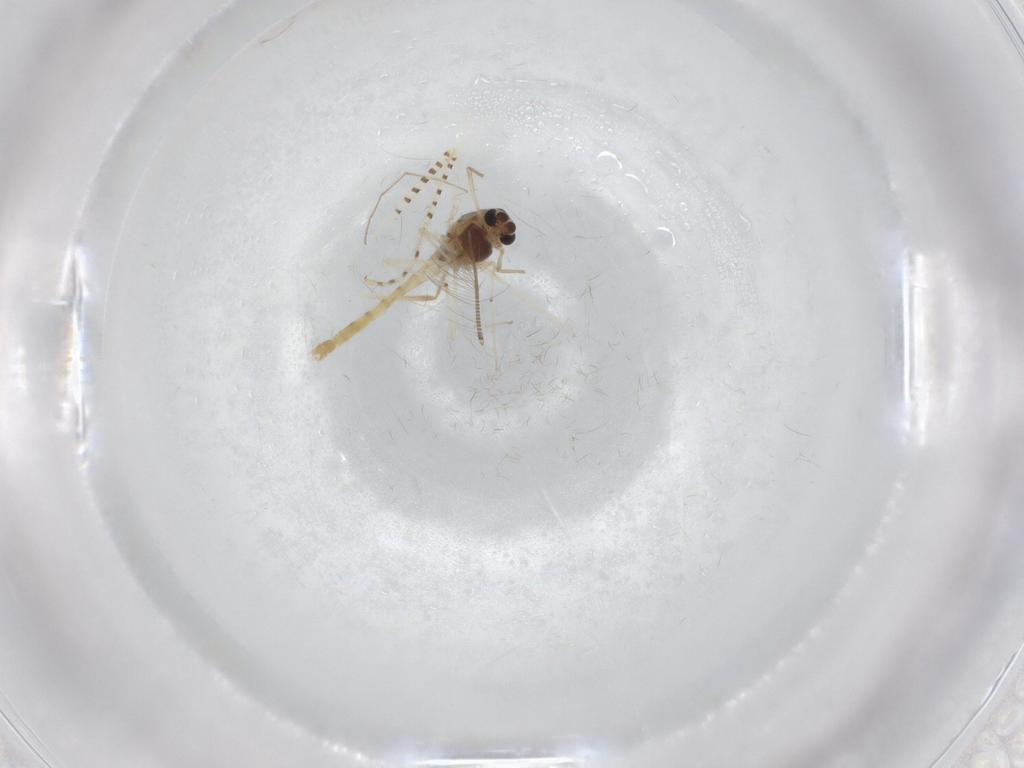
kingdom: Animalia
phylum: Arthropoda
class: Insecta
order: Diptera
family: Chironomidae
